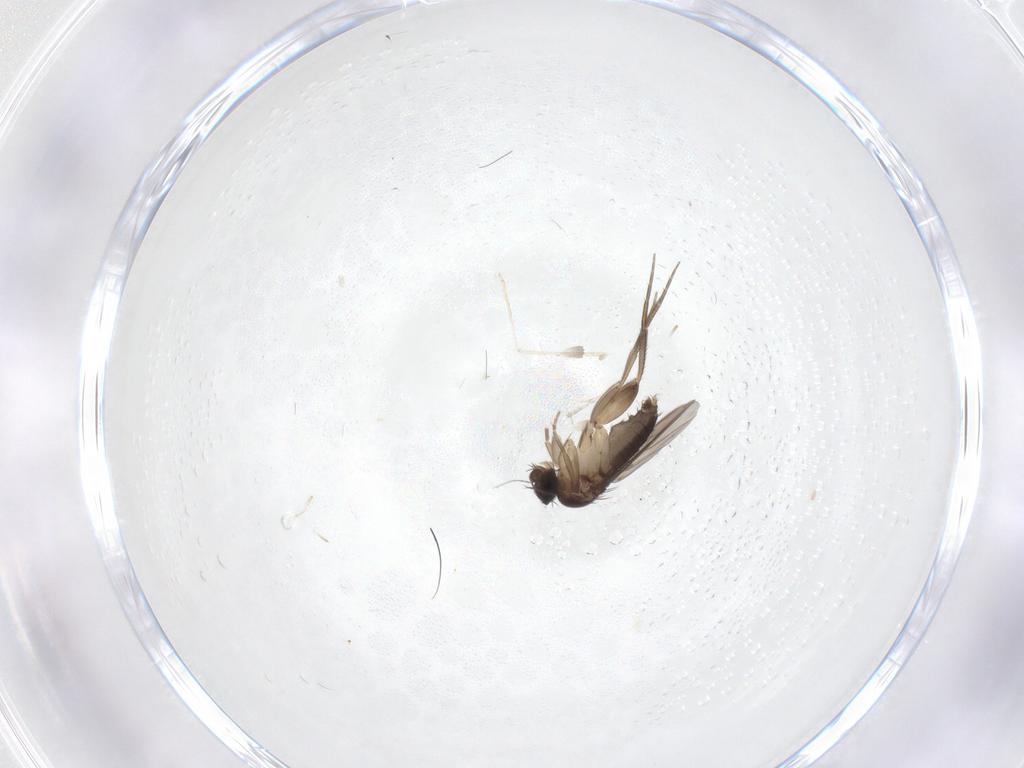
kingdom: Animalia
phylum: Arthropoda
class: Insecta
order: Diptera
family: Phoridae
